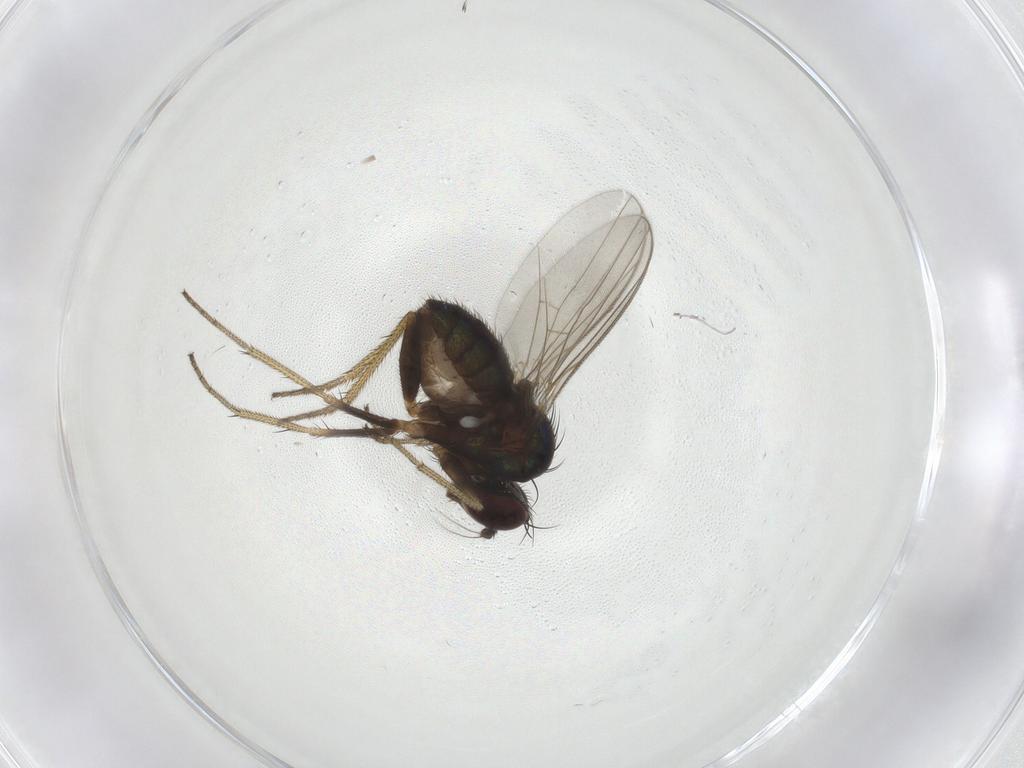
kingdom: Animalia
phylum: Arthropoda
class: Insecta
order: Diptera
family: Dolichopodidae
